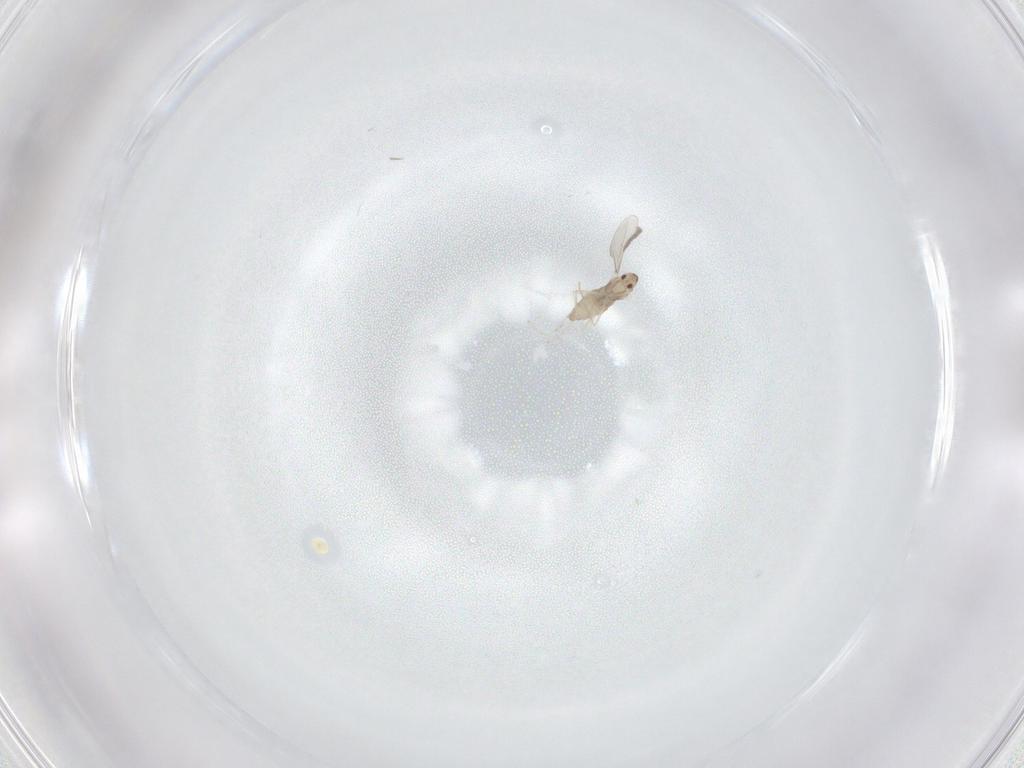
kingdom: Animalia
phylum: Arthropoda
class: Insecta
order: Diptera
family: Cecidomyiidae
